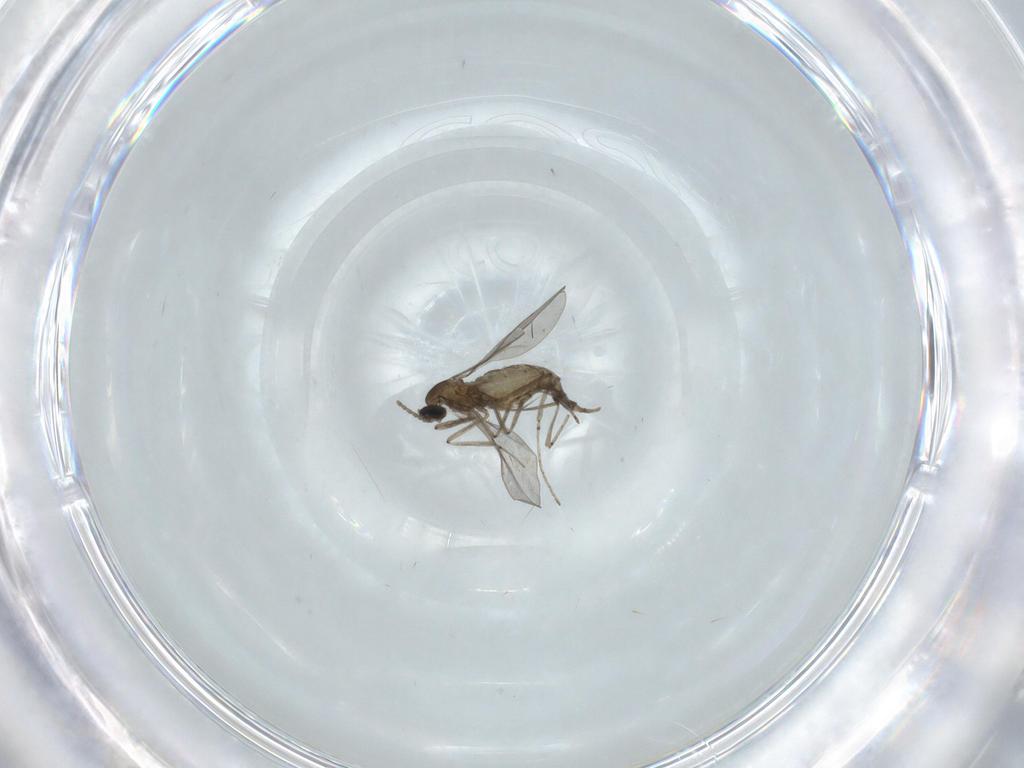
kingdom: Animalia
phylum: Arthropoda
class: Insecta
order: Diptera
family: Cecidomyiidae
